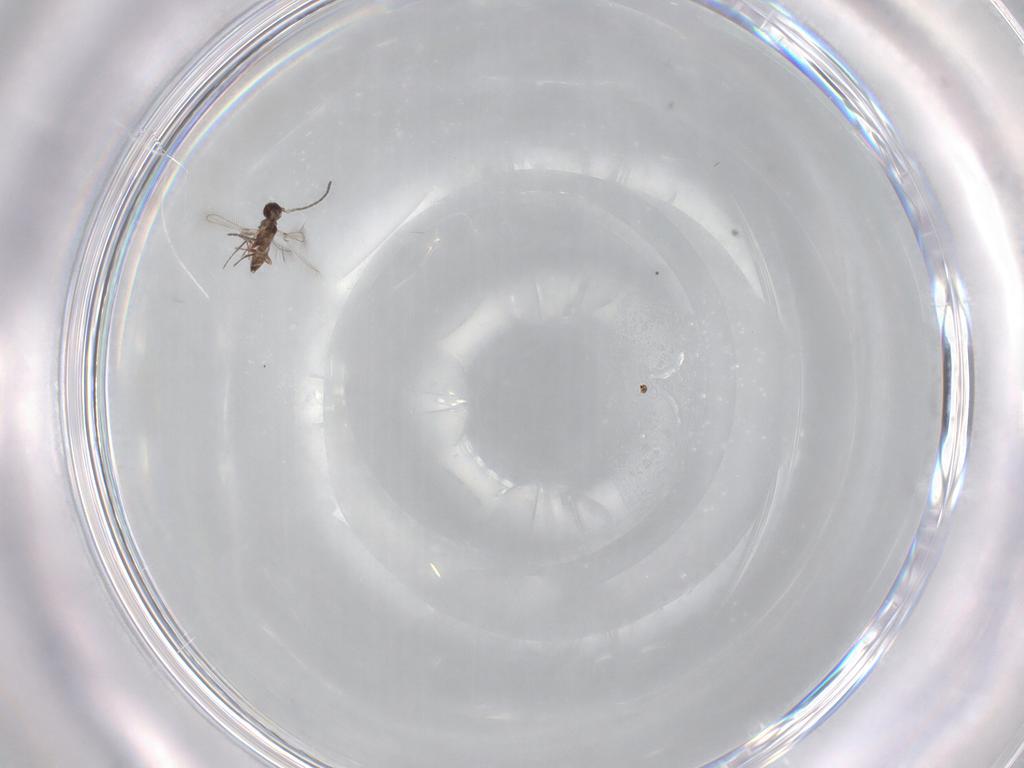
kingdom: Animalia
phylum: Arthropoda
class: Insecta
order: Hymenoptera
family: Mymaridae
